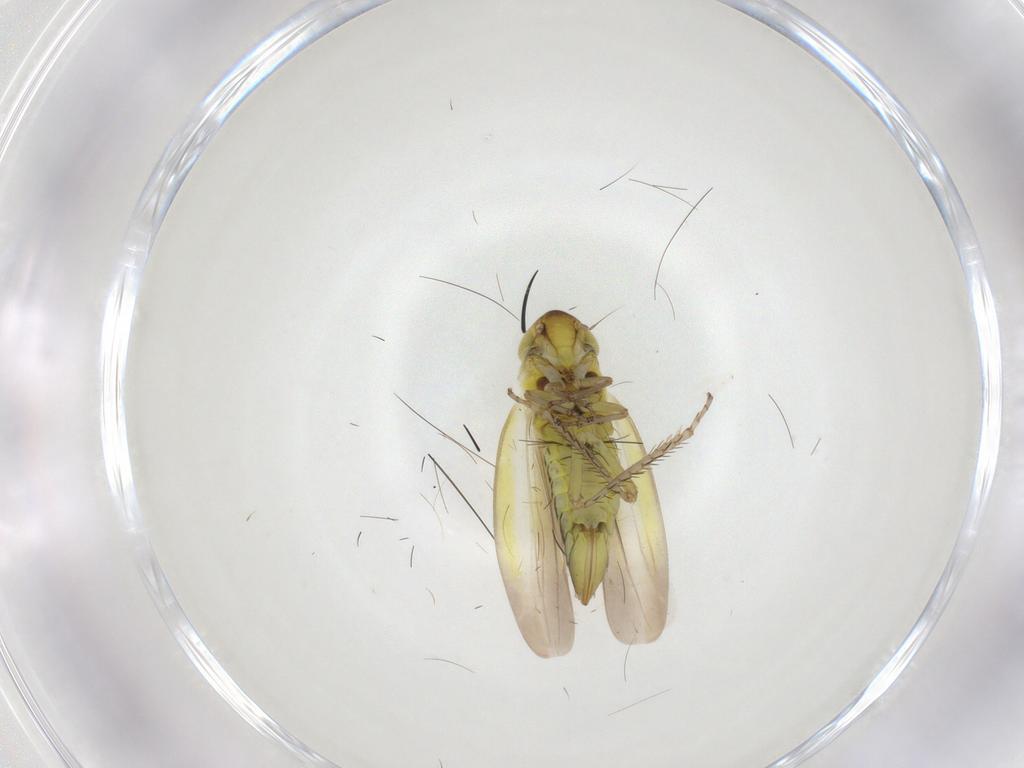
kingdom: Animalia
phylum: Arthropoda
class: Insecta
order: Hemiptera
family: Cicadellidae
